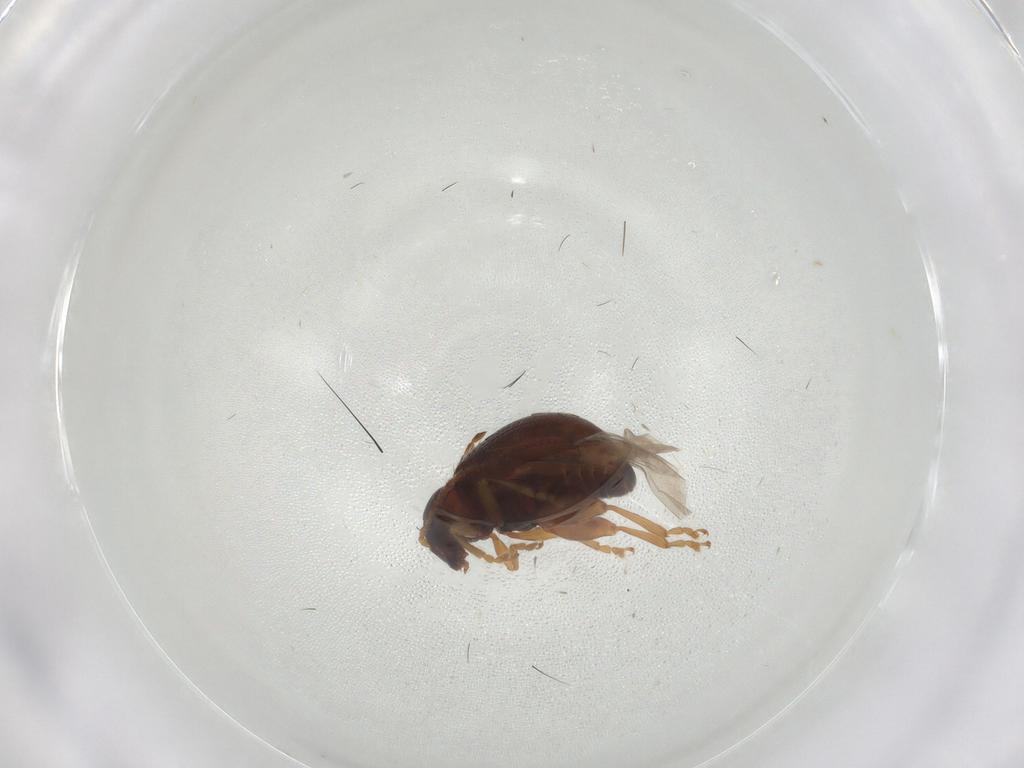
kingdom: Animalia
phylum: Arthropoda
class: Insecta
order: Coleoptera
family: Chrysomelidae
